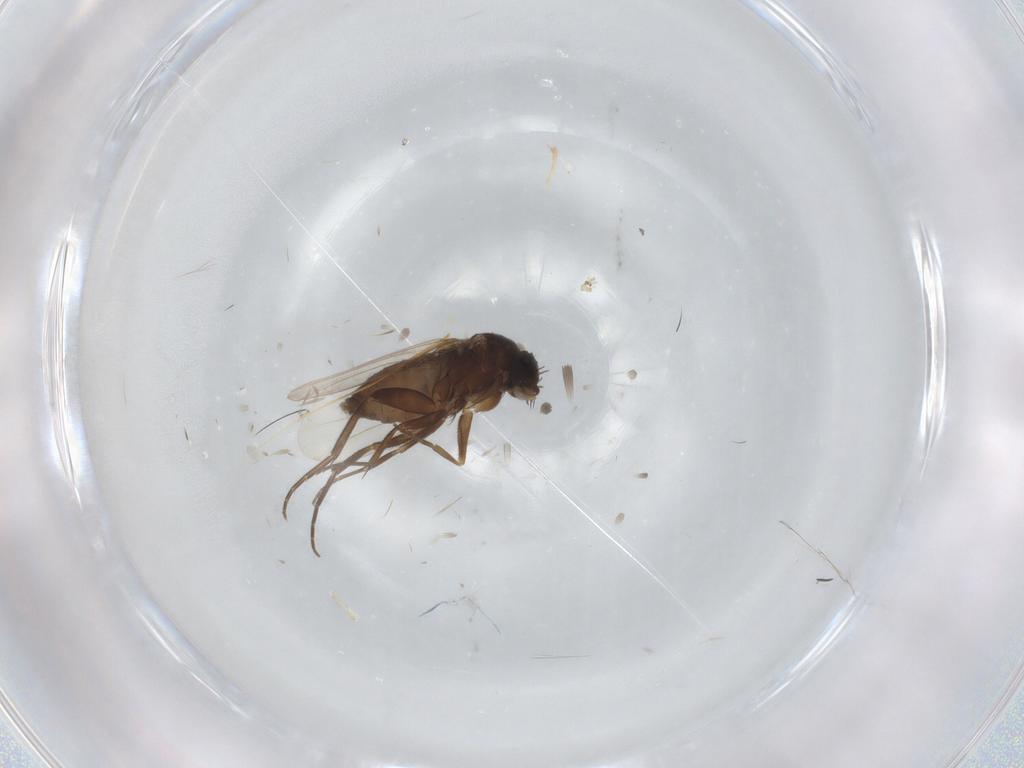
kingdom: Animalia
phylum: Arthropoda
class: Insecta
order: Diptera
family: Phoridae
